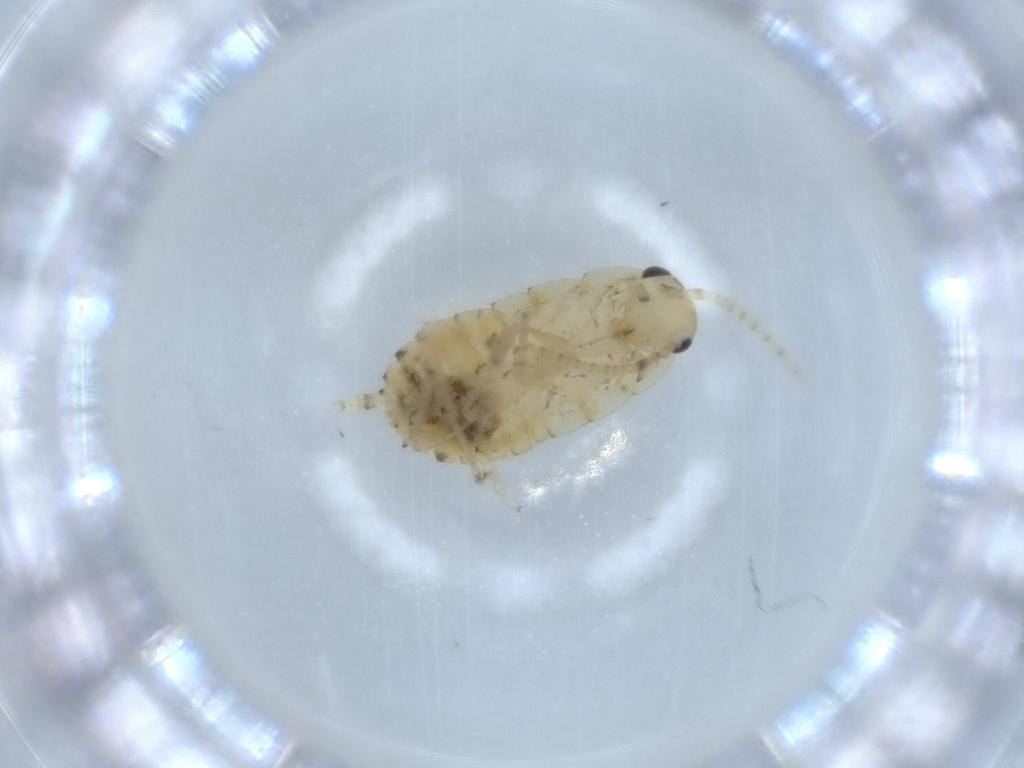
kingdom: Animalia
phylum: Arthropoda
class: Insecta
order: Blattodea
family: Ectobiidae
